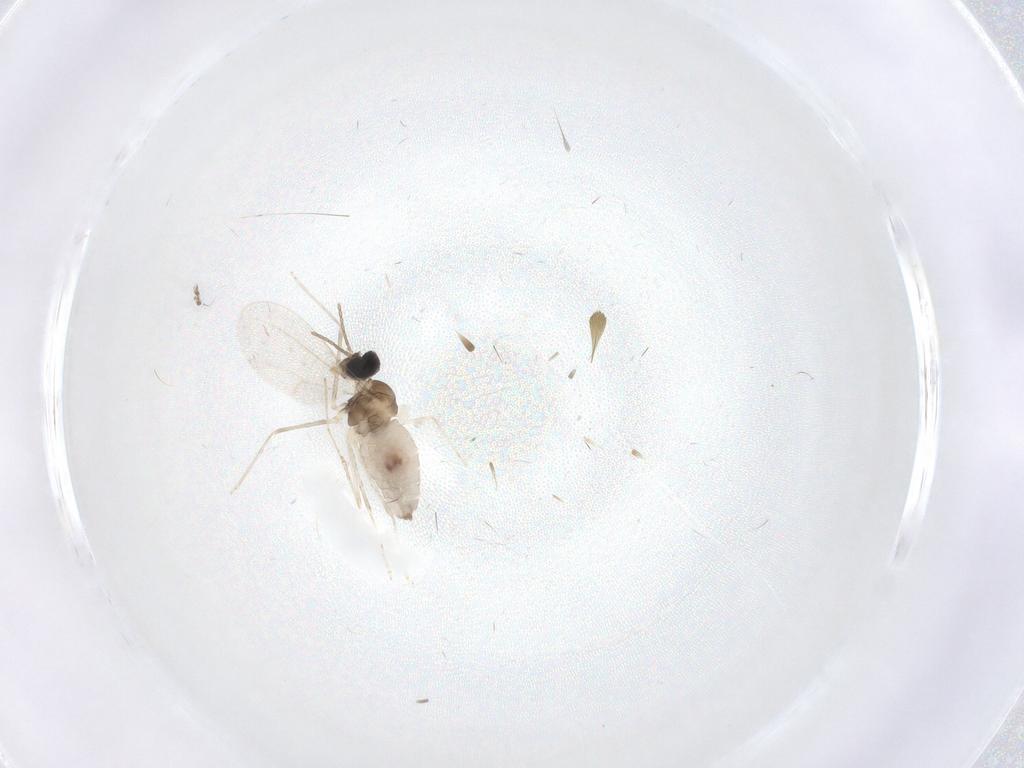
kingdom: Animalia
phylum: Arthropoda
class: Insecta
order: Diptera
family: Cecidomyiidae
